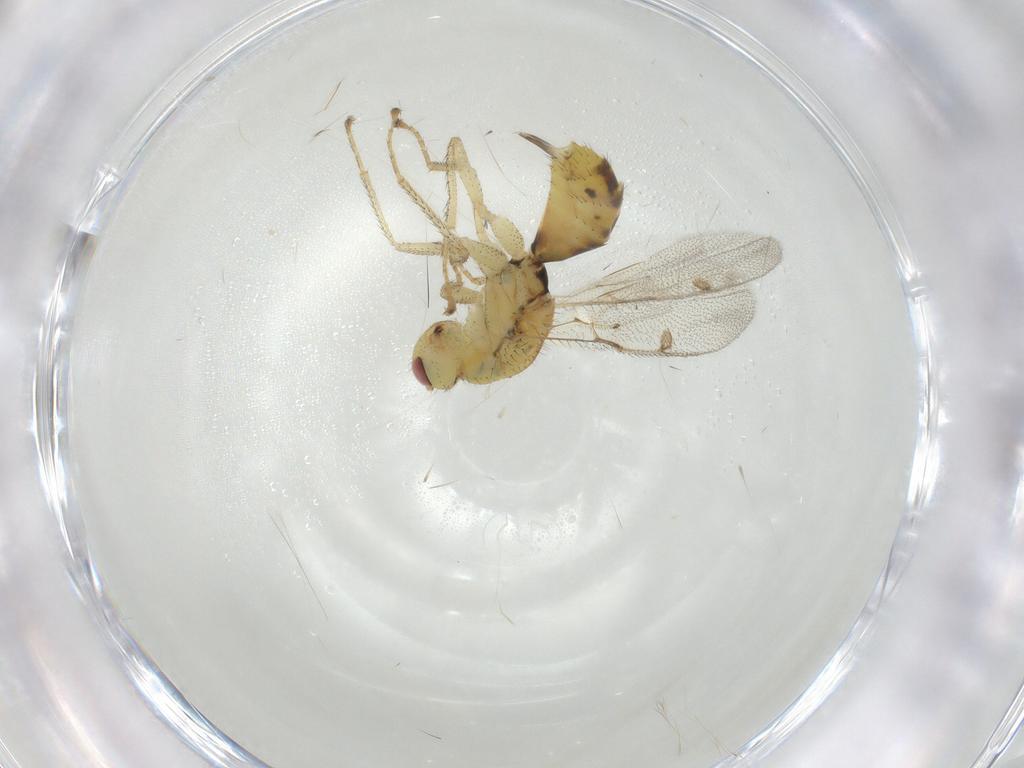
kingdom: Animalia
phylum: Arthropoda
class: Insecta
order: Hymenoptera
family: Megastigmidae
